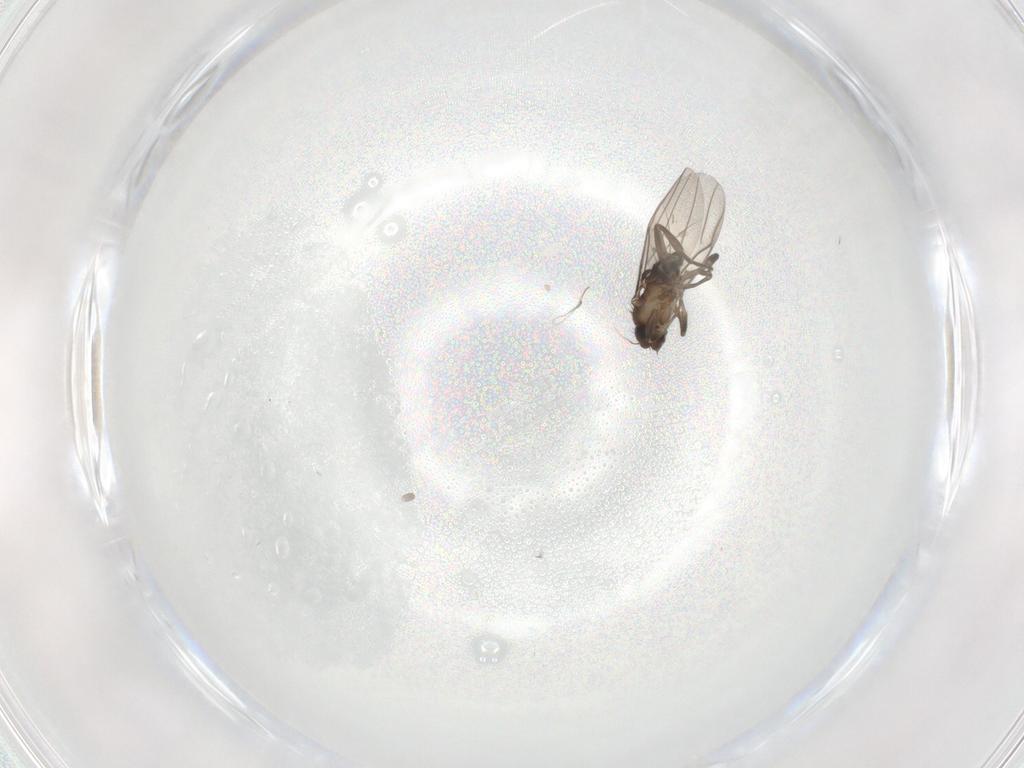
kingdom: Animalia
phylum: Arthropoda
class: Insecta
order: Diptera
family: Phoridae
